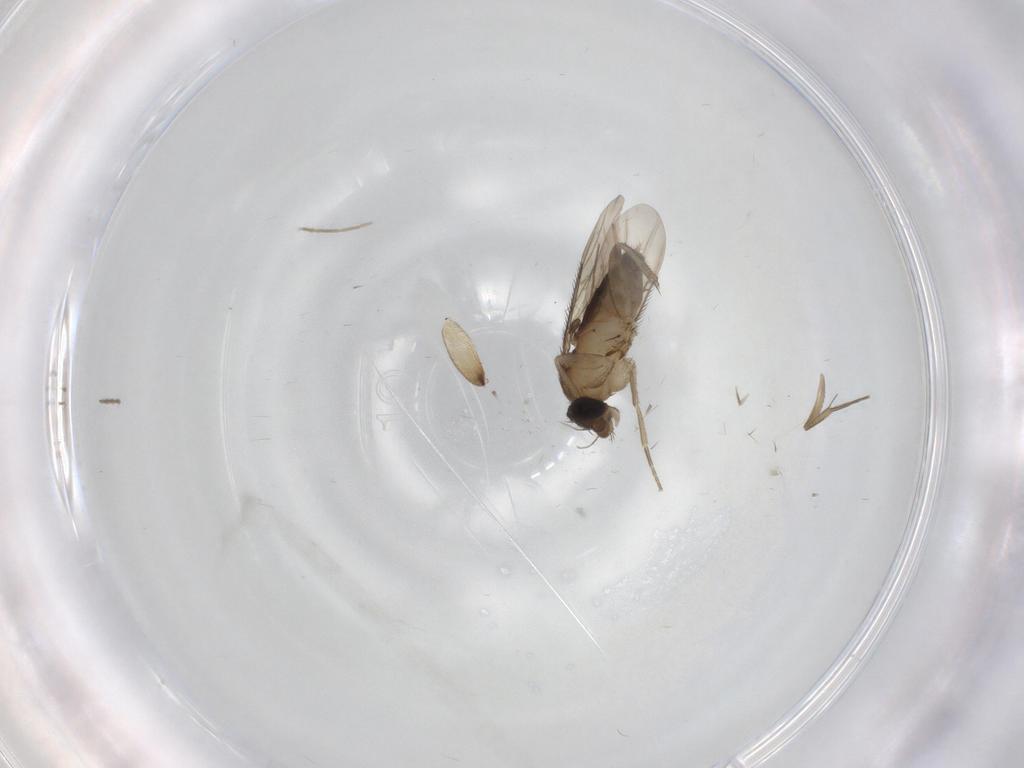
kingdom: Animalia
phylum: Arthropoda
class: Insecta
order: Diptera
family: Phoridae
